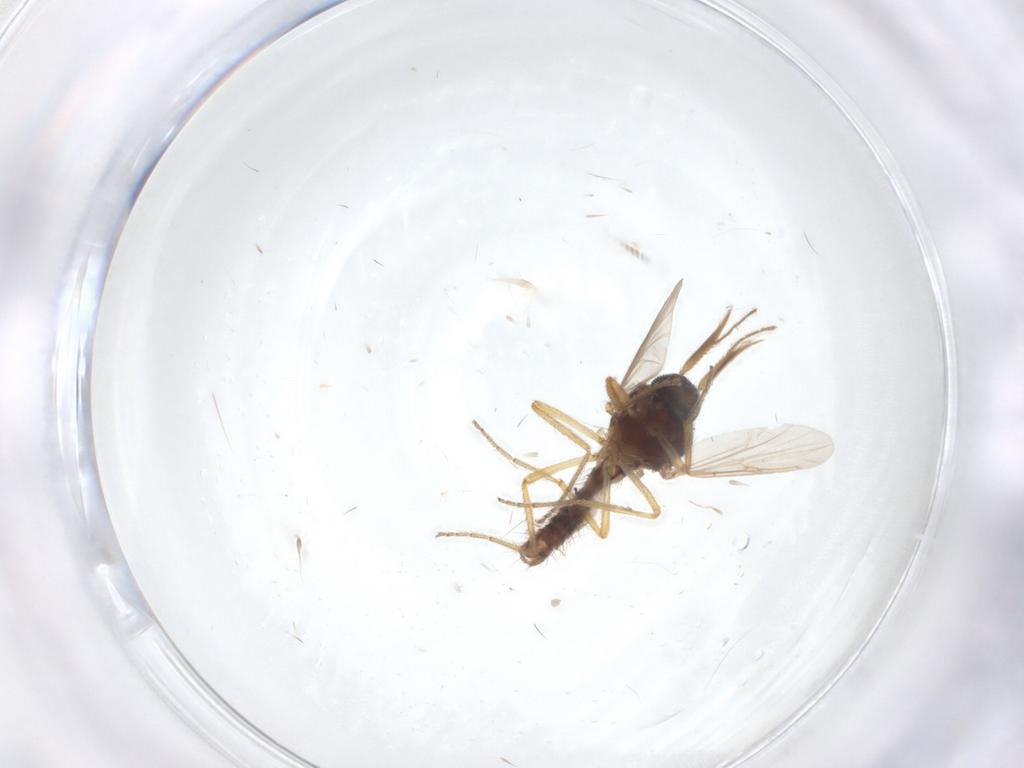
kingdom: Animalia
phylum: Arthropoda
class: Insecta
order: Diptera
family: Ceratopogonidae
